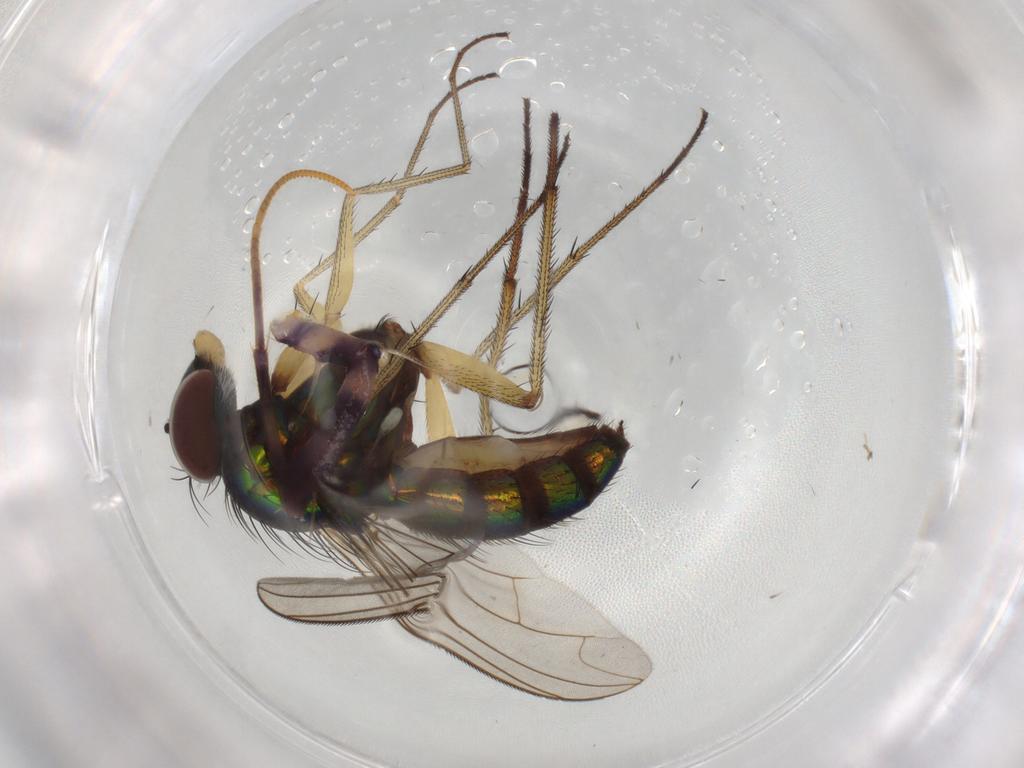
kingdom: Animalia
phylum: Arthropoda
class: Insecta
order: Diptera
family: Dolichopodidae
